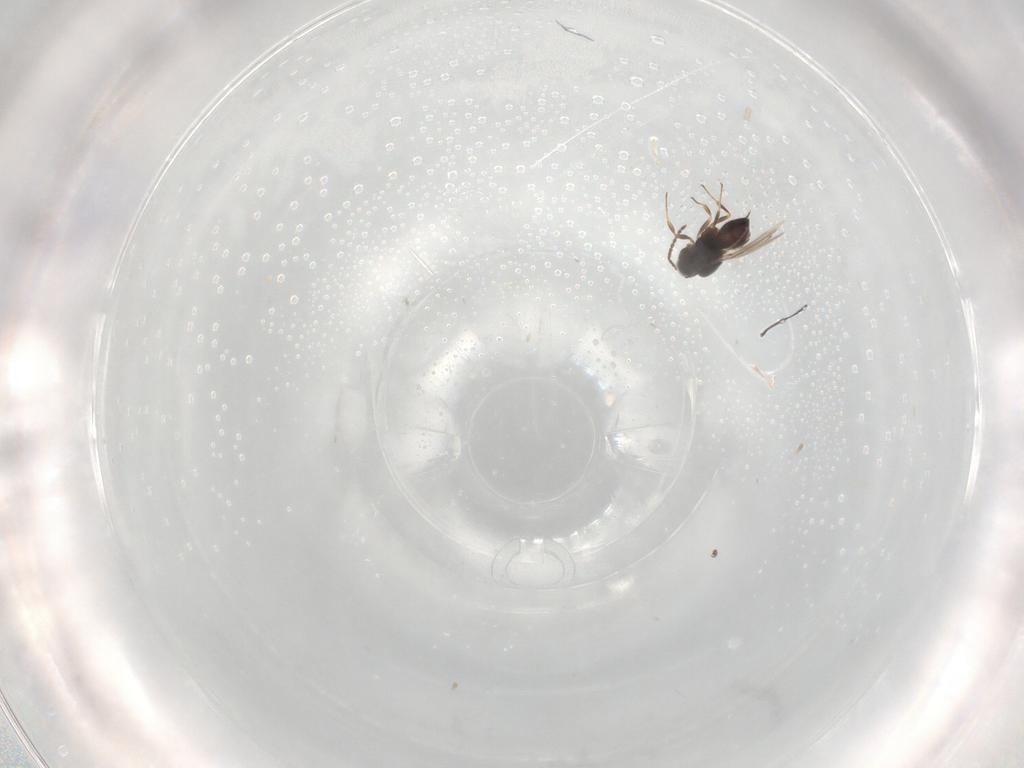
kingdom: Animalia
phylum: Arthropoda
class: Insecta
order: Hymenoptera
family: Scelionidae
